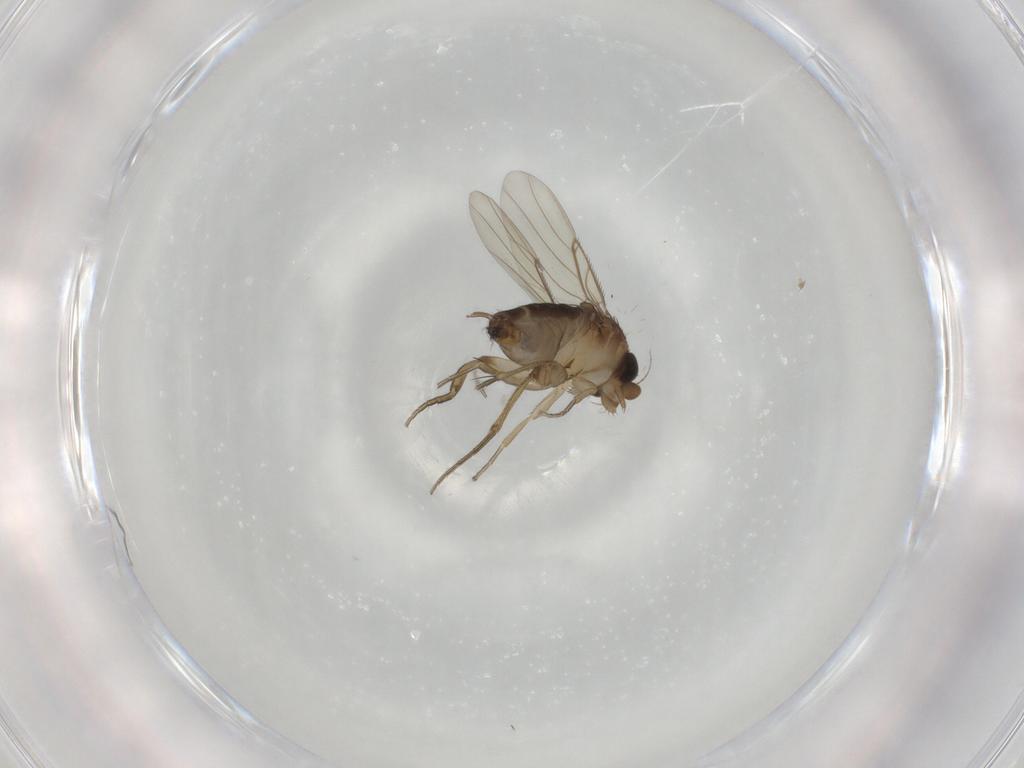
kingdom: Animalia
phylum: Arthropoda
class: Insecta
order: Diptera
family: Phoridae
